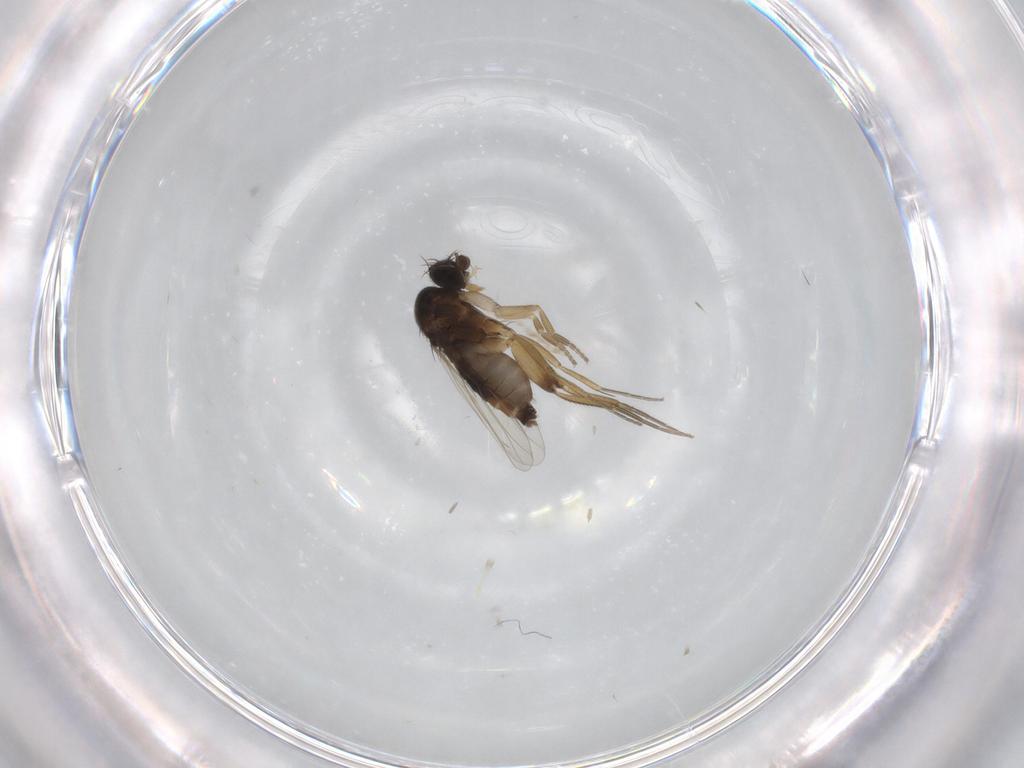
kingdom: Animalia
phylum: Arthropoda
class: Insecta
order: Diptera
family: Phoridae
